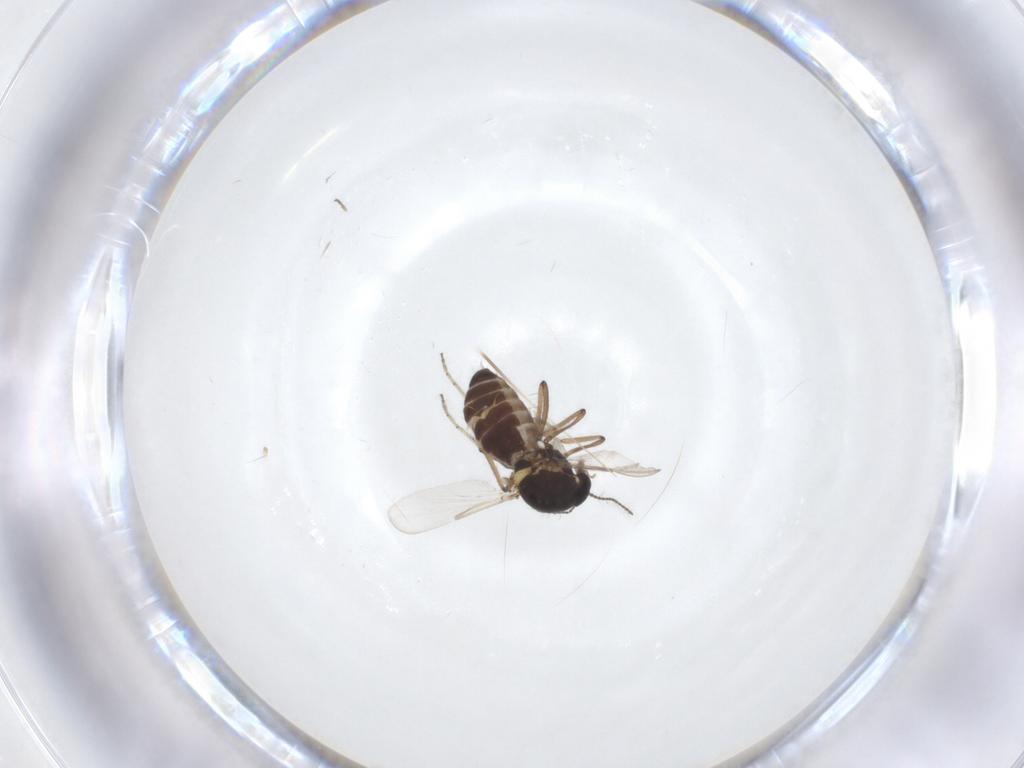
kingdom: Animalia
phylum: Arthropoda
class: Insecta
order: Diptera
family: Ceratopogonidae
